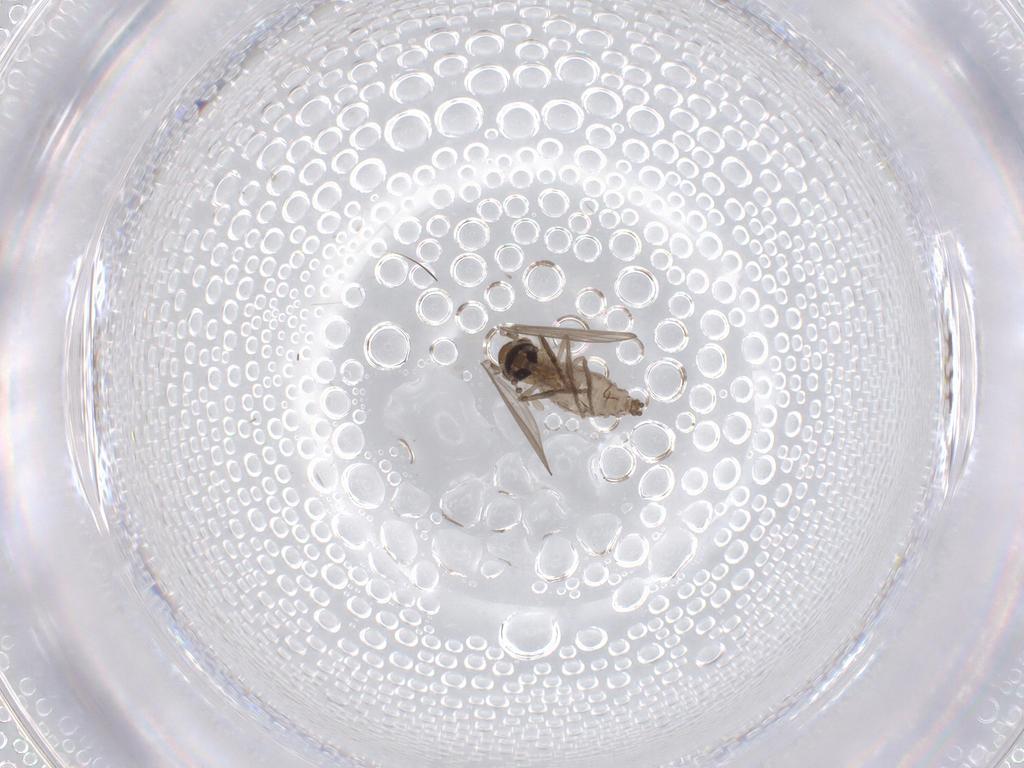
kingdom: Animalia
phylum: Arthropoda
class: Insecta
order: Diptera
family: Psychodidae
